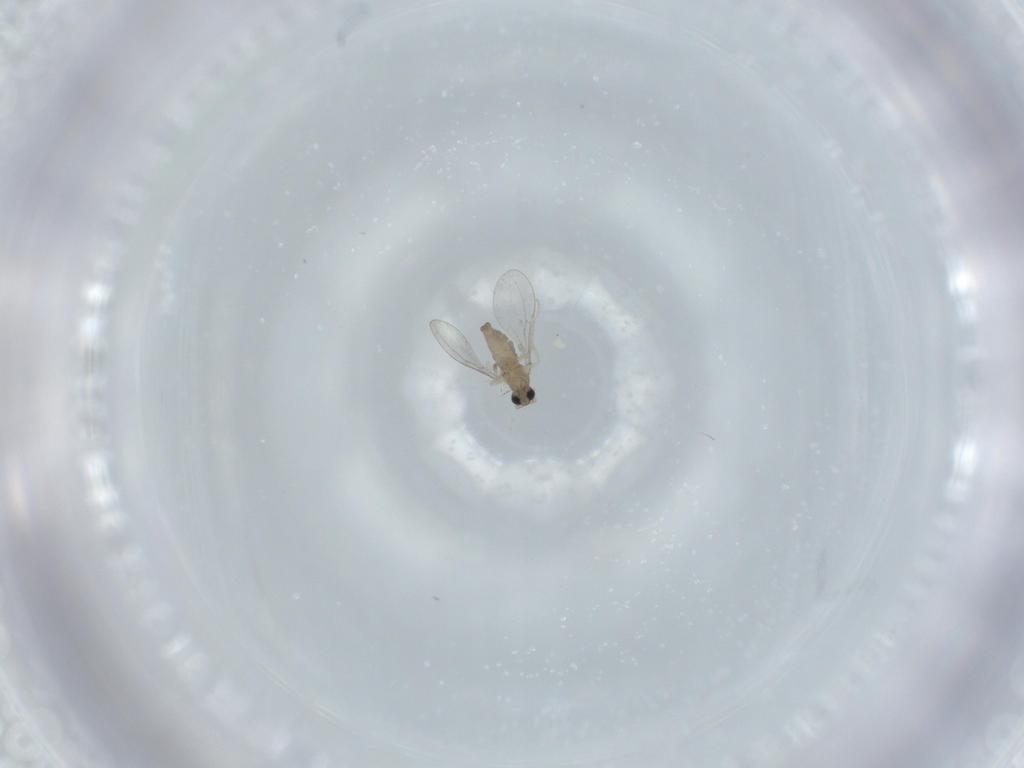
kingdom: Animalia
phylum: Arthropoda
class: Insecta
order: Diptera
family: Cecidomyiidae
